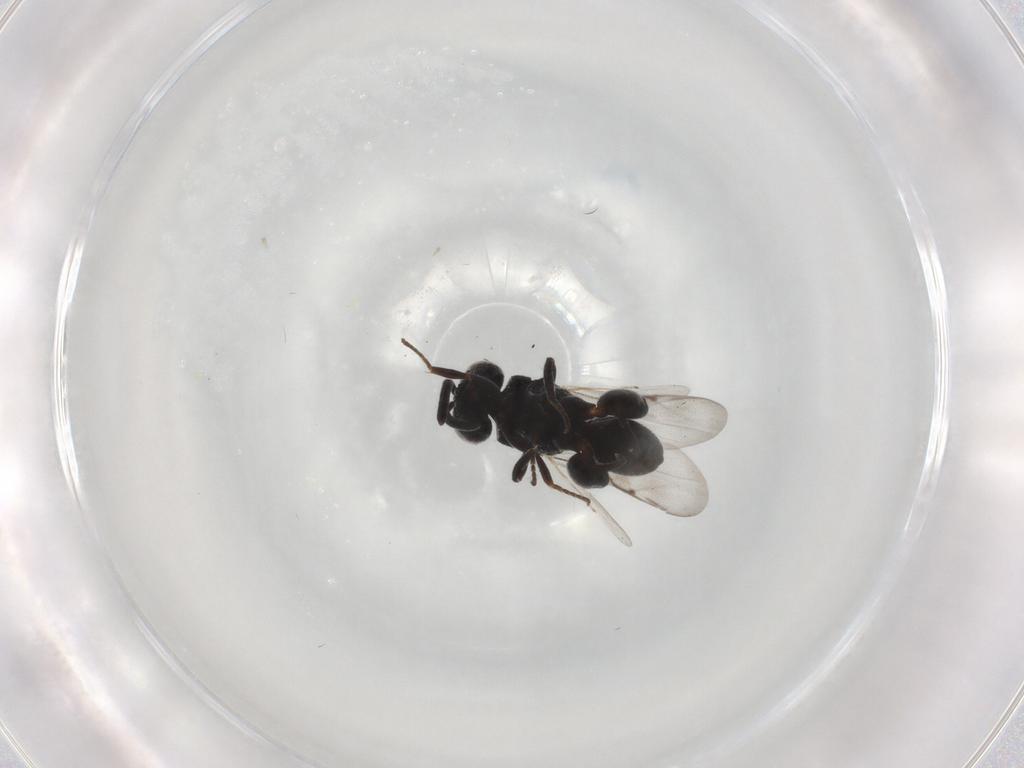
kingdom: Animalia
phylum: Arthropoda
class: Insecta
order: Hymenoptera
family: Chalcididae
